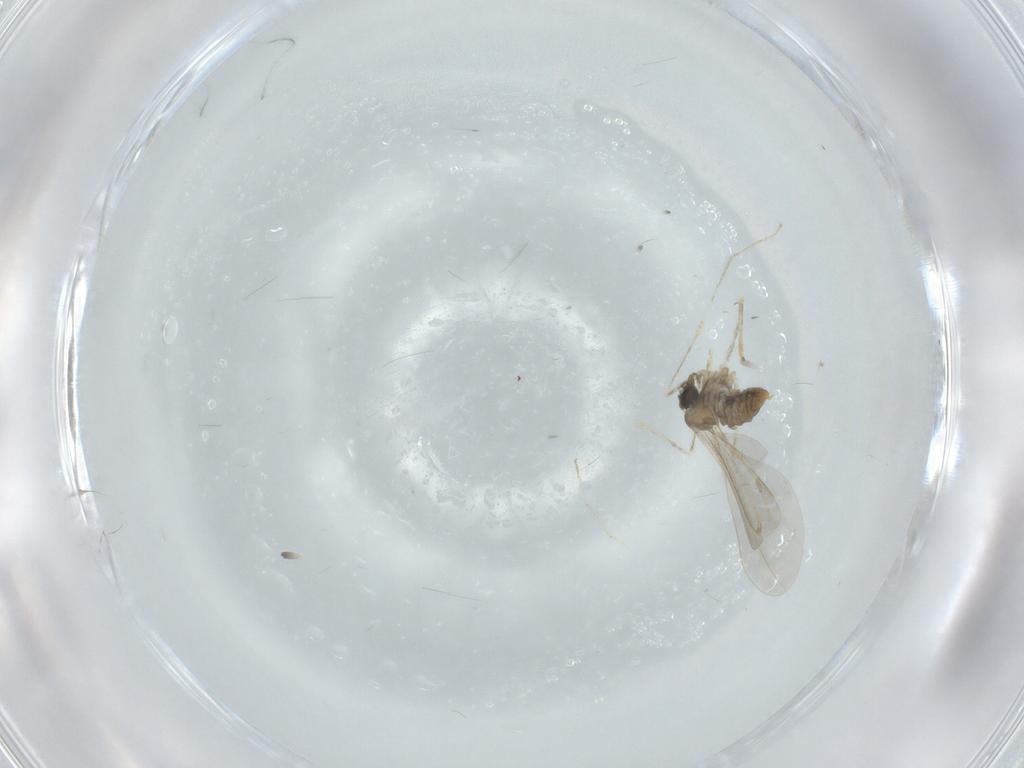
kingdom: Animalia
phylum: Arthropoda
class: Insecta
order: Diptera
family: Cecidomyiidae
